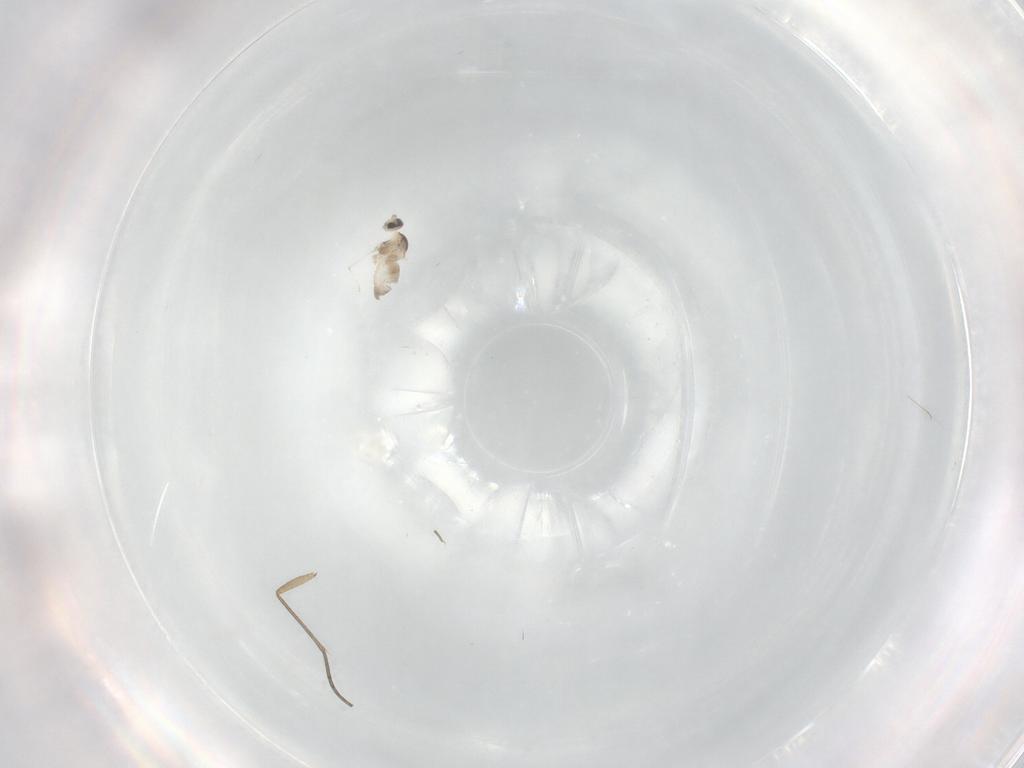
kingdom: Animalia
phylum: Arthropoda
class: Insecta
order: Diptera
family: Cecidomyiidae
